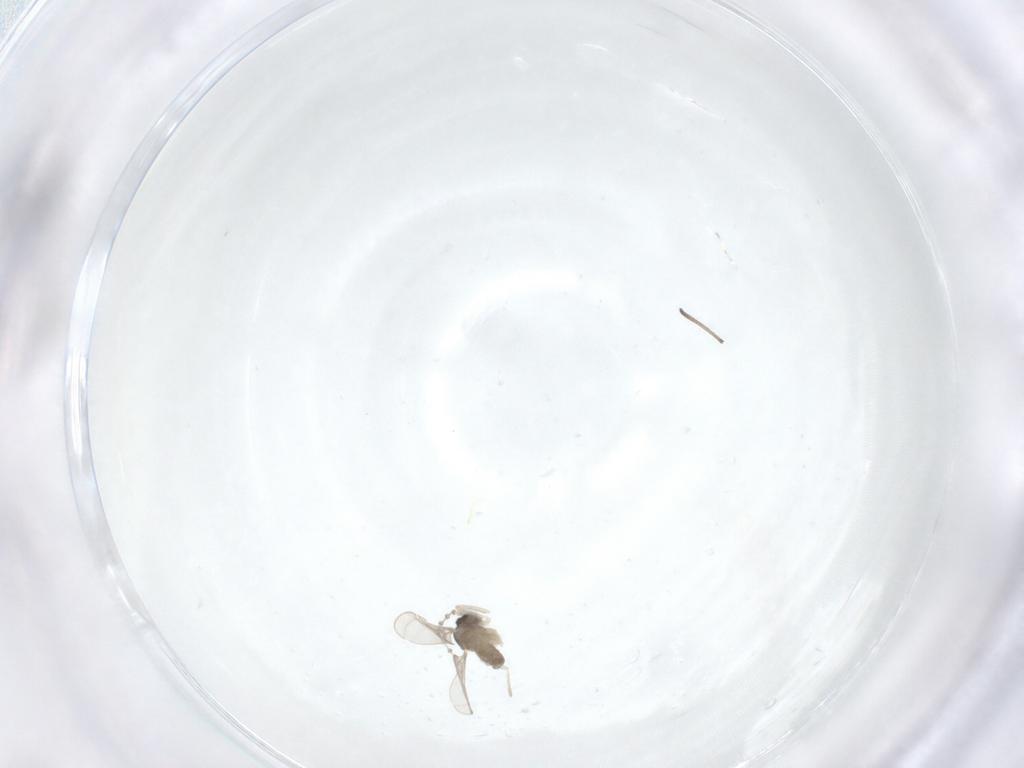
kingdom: Animalia
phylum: Arthropoda
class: Insecta
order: Diptera
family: Cecidomyiidae
